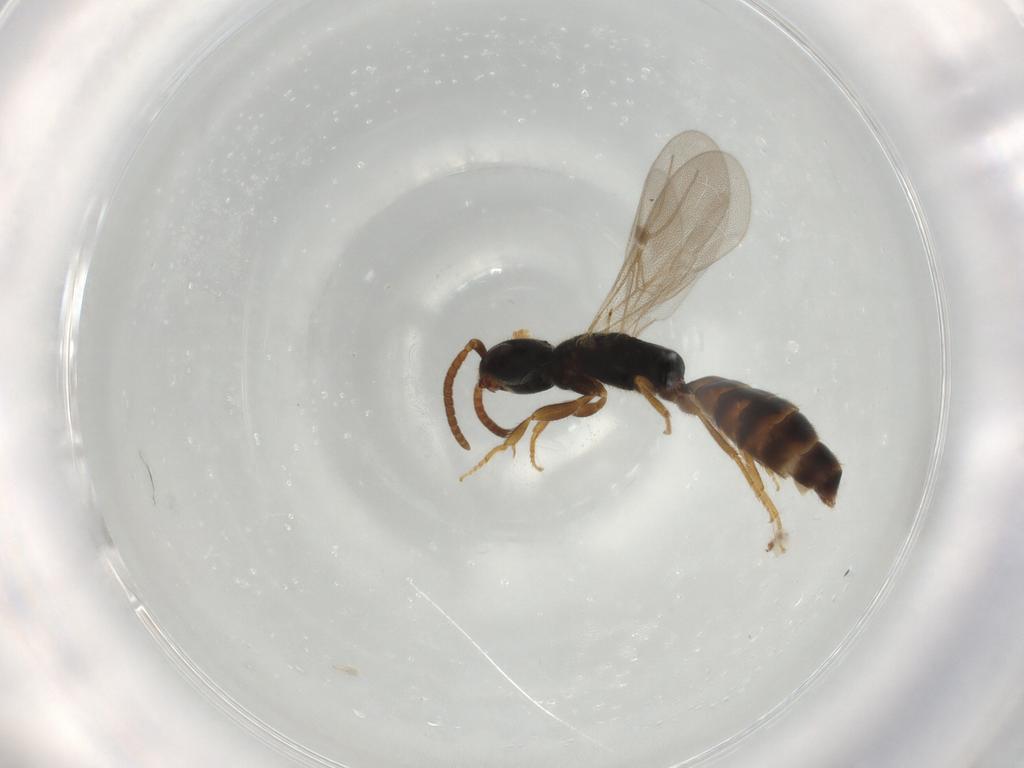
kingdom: Animalia
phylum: Arthropoda
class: Insecta
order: Hymenoptera
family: Bethylidae
